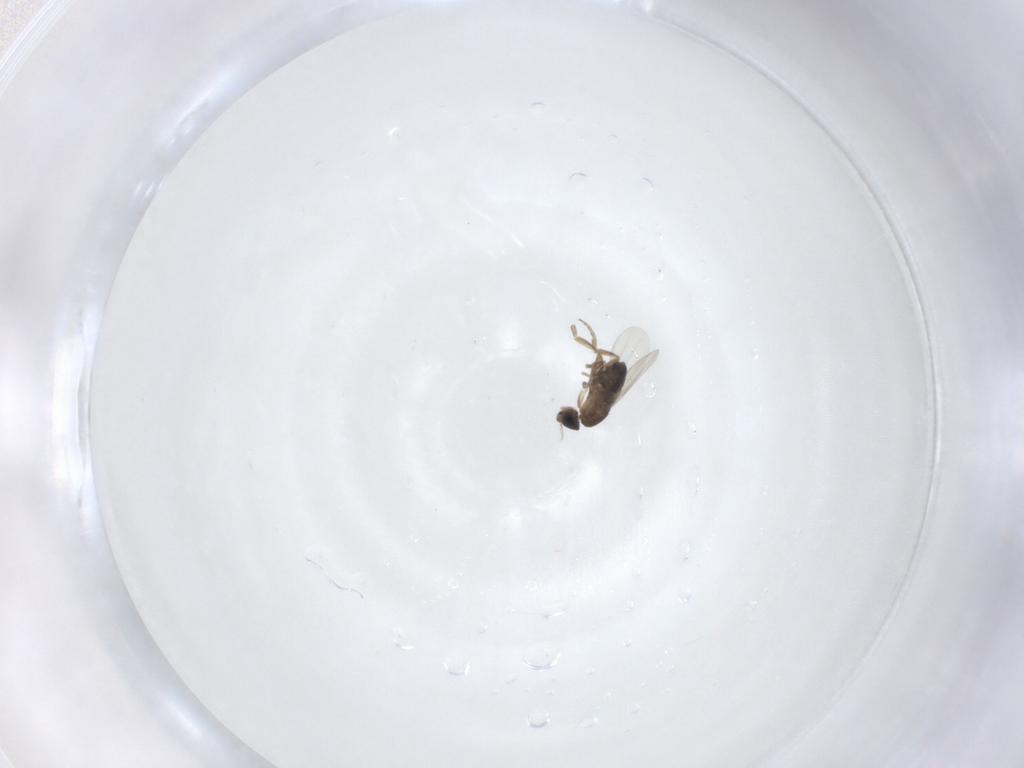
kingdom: Animalia
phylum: Arthropoda
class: Insecta
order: Diptera
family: Phoridae
